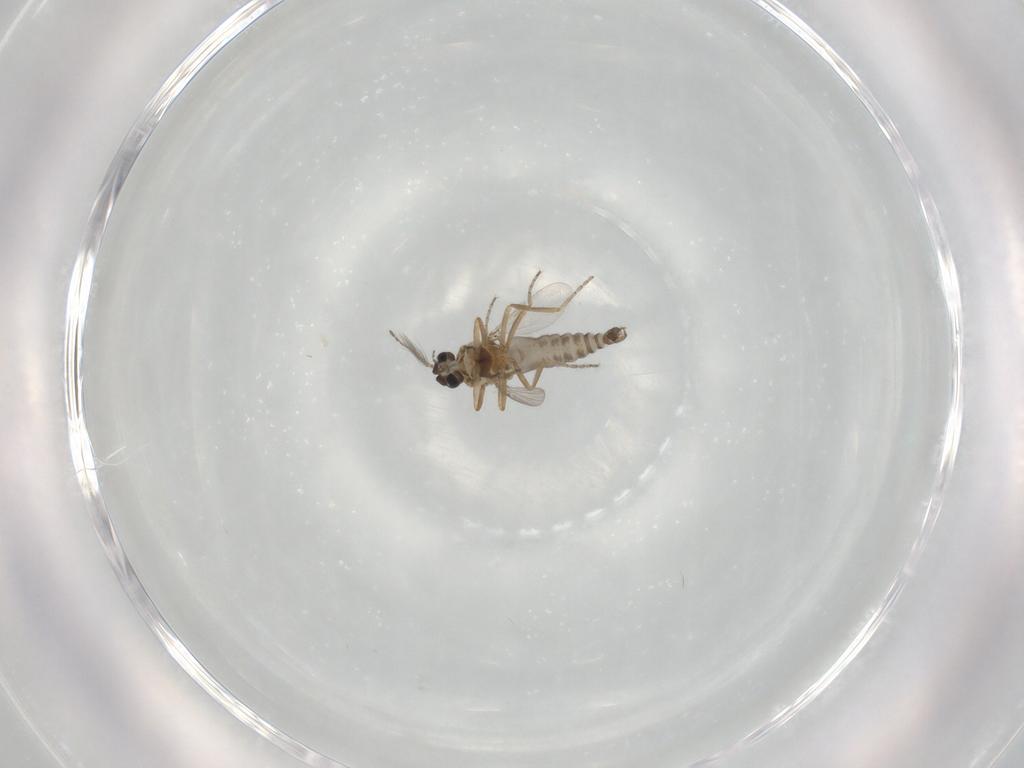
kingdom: Animalia
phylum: Arthropoda
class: Insecta
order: Diptera
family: Ceratopogonidae
